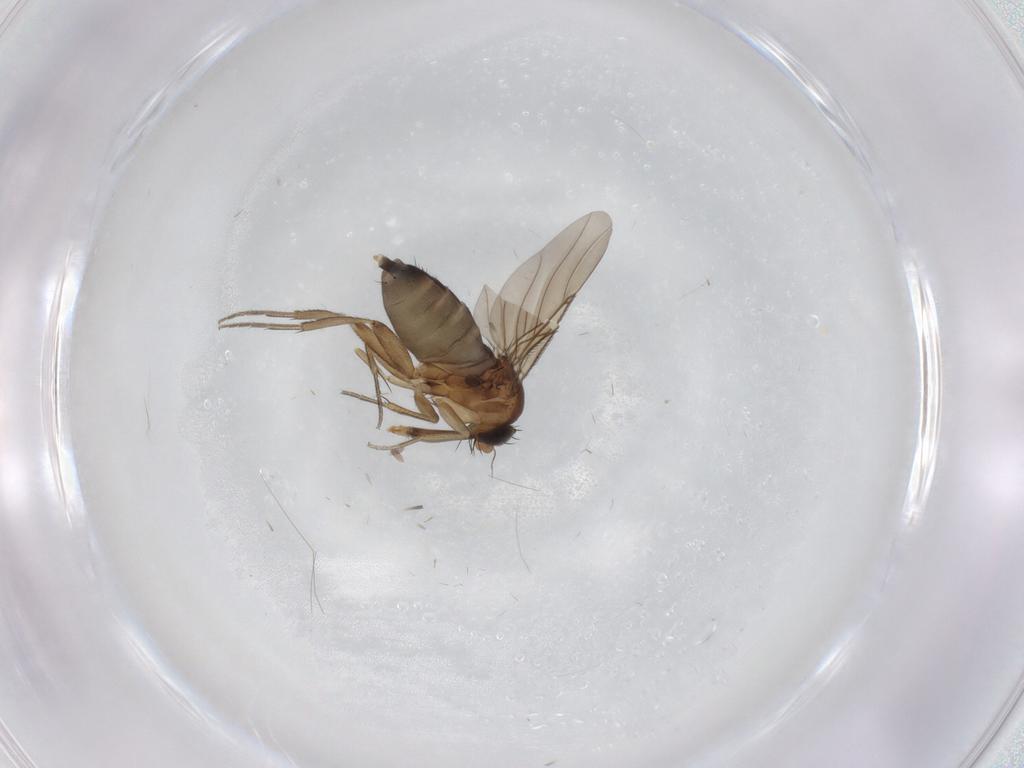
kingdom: Animalia
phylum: Arthropoda
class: Insecta
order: Diptera
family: Phoridae
